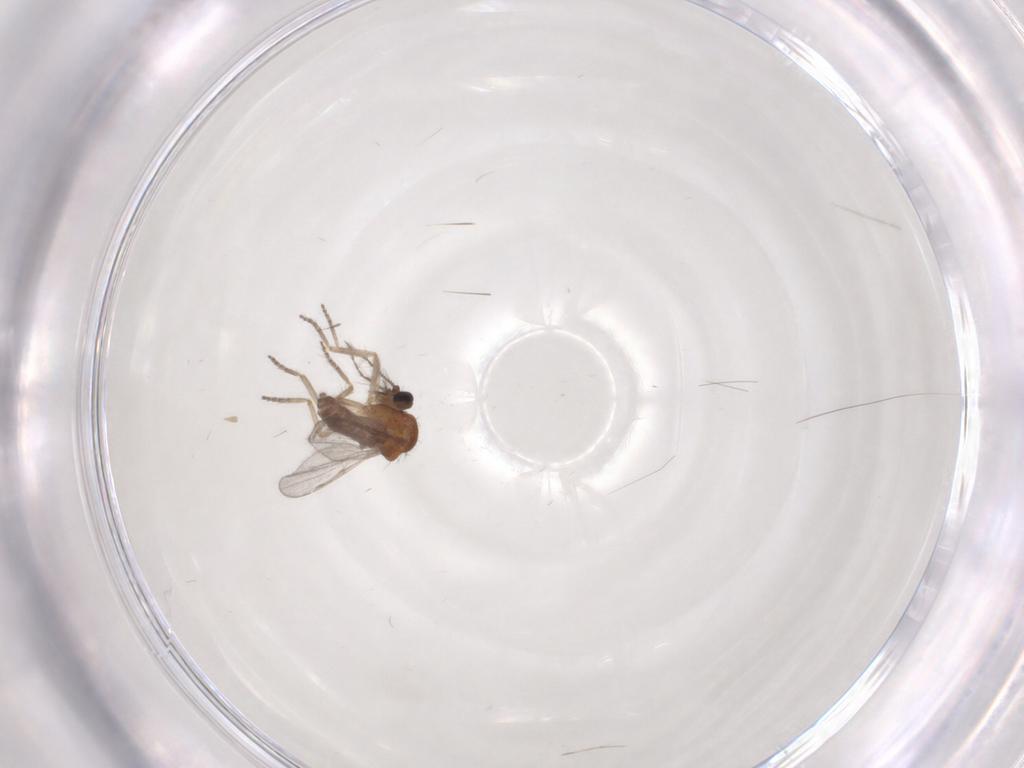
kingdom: Animalia
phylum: Arthropoda
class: Insecta
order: Diptera
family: Ceratopogonidae
